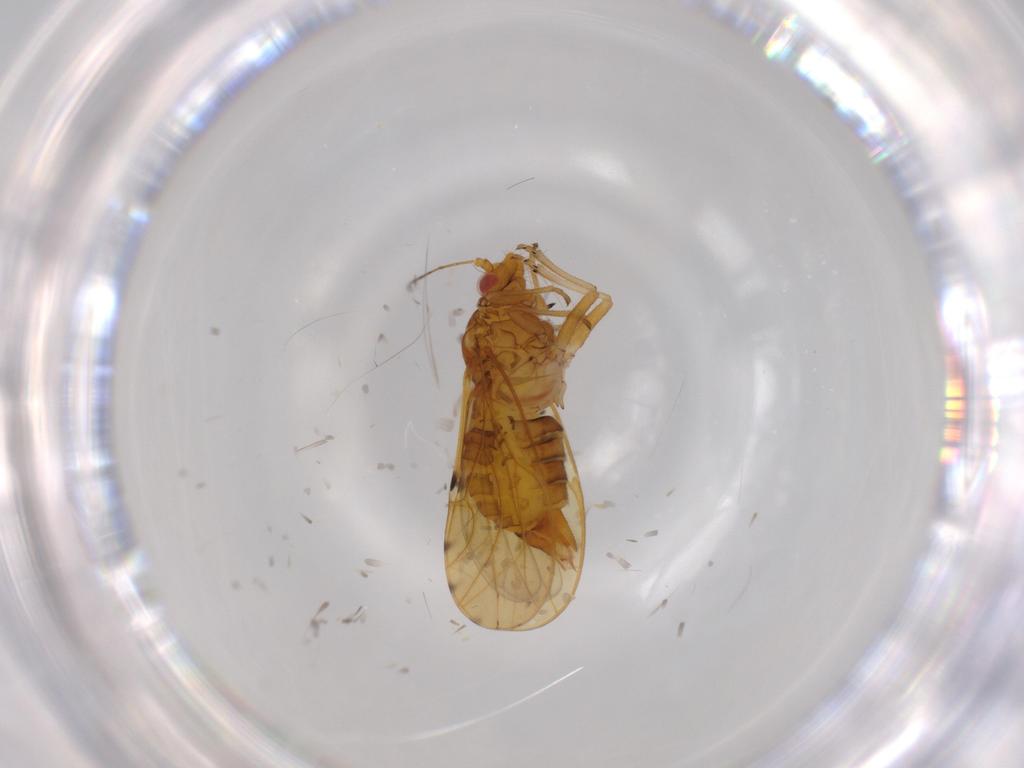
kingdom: Animalia
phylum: Arthropoda
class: Insecta
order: Hemiptera
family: Psylloidea_incertae_sedis
